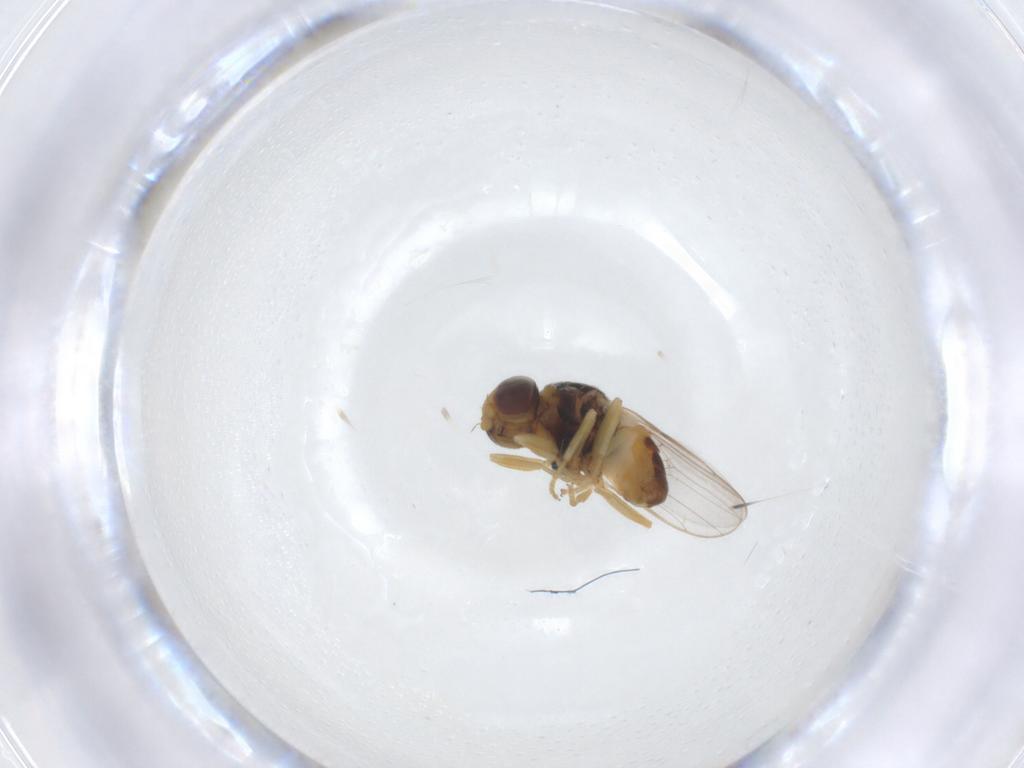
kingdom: Animalia
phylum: Arthropoda
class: Insecta
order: Diptera
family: Chloropidae
